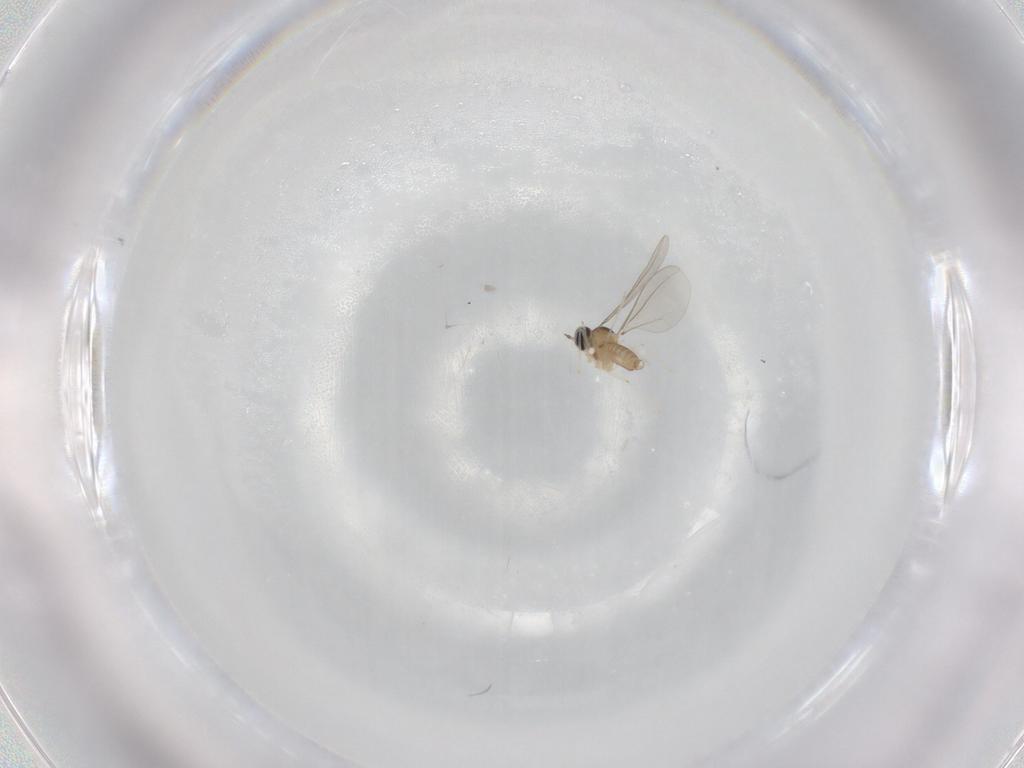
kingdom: Animalia
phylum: Arthropoda
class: Insecta
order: Diptera
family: Cecidomyiidae
